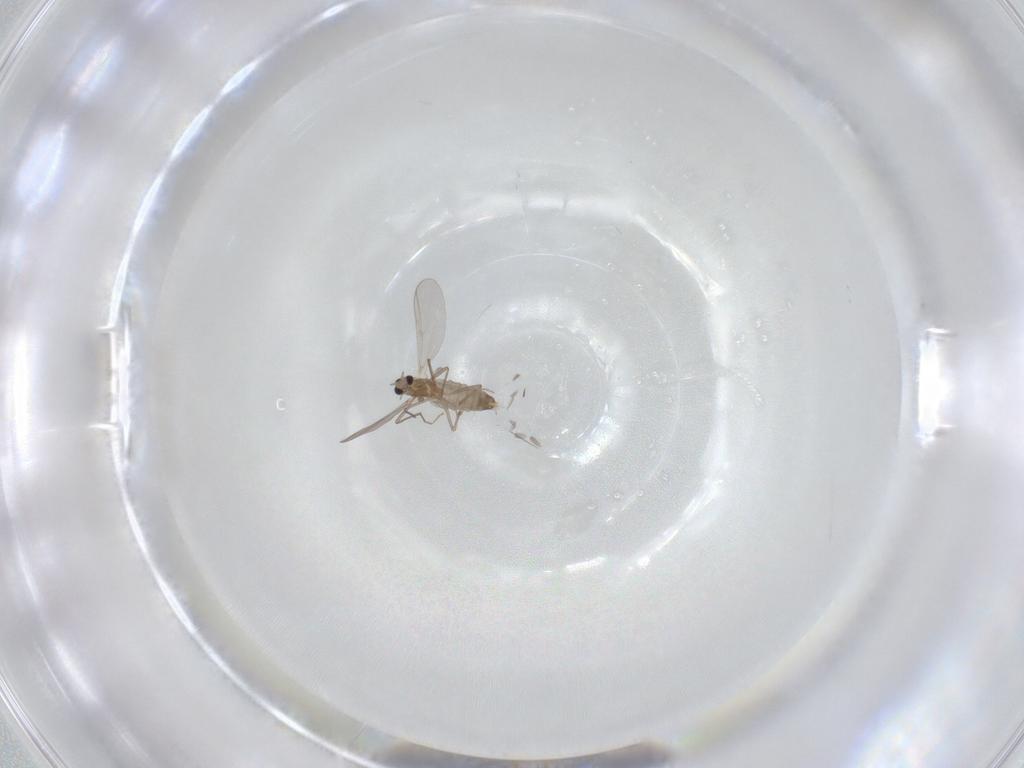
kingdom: Animalia
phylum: Arthropoda
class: Insecta
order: Diptera
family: Chironomidae
